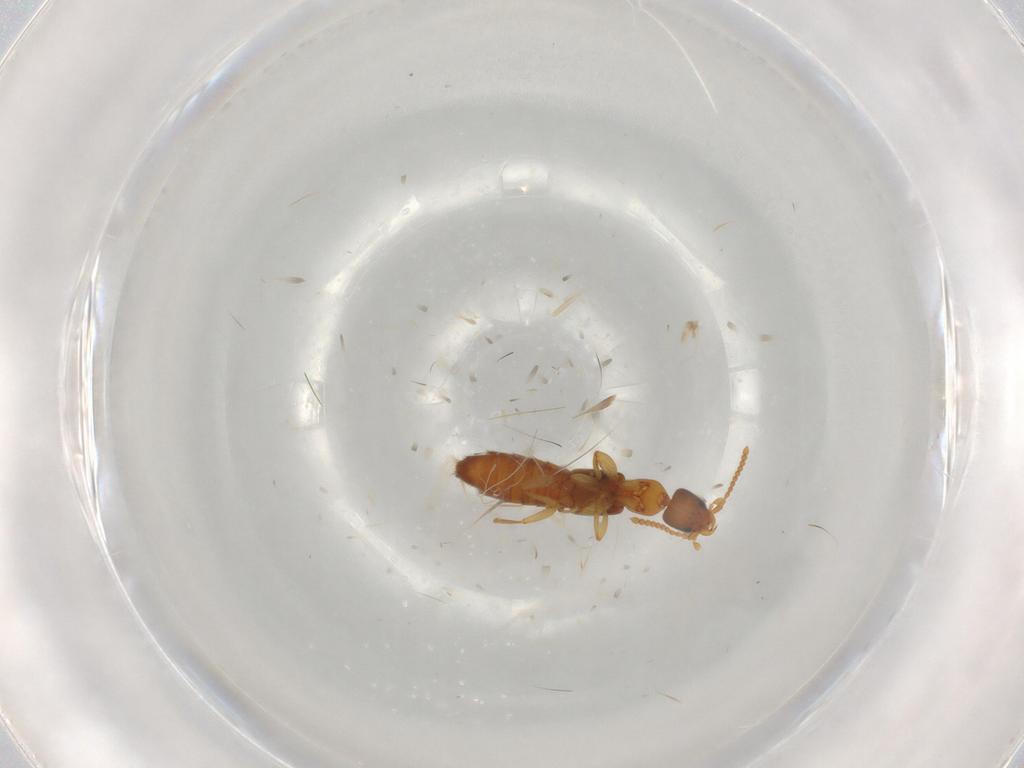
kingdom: Animalia
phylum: Arthropoda
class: Insecta
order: Coleoptera
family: Staphylinidae
